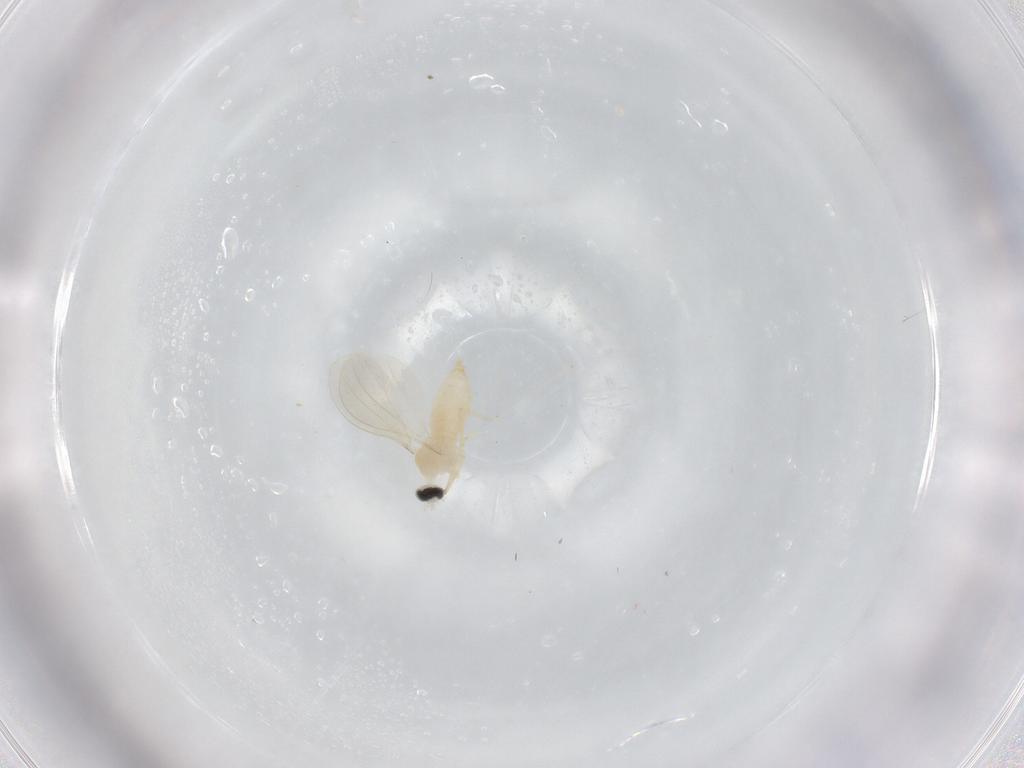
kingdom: Animalia
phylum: Arthropoda
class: Insecta
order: Diptera
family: Cecidomyiidae
